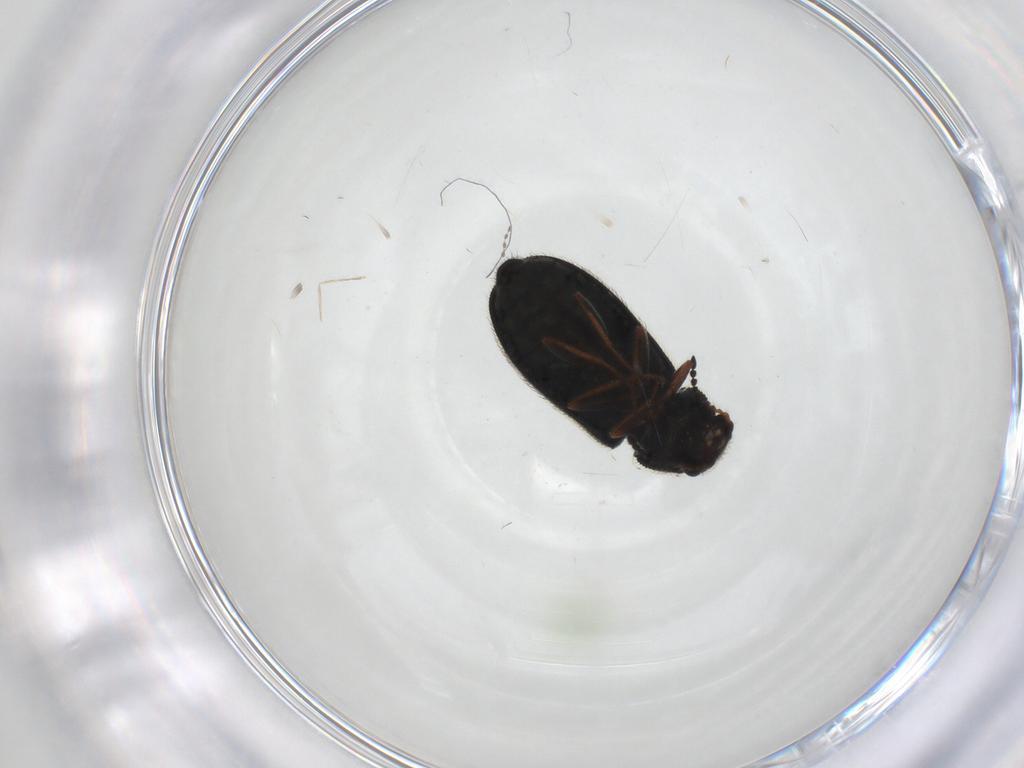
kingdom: Animalia
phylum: Arthropoda
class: Insecta
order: Coleoptera
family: Melyridae
